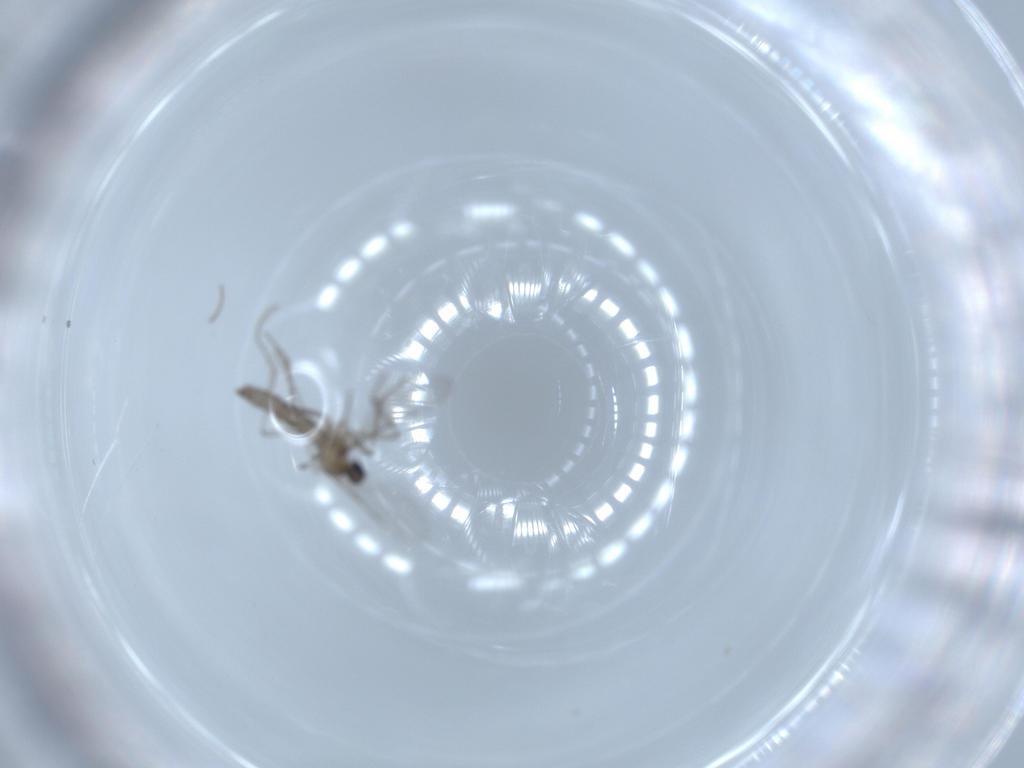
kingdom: Animalia
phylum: Arthropoda
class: Insecta
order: Diptera
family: Cecidomyiidae
